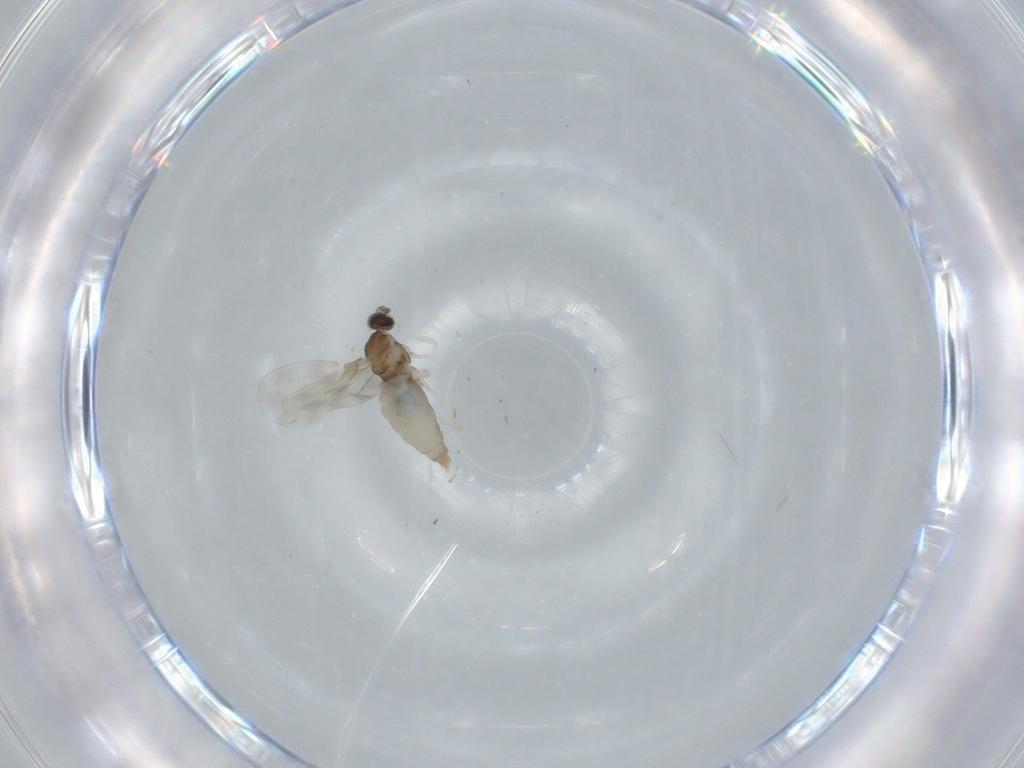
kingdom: Animalia
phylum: Arthropoda
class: Insecta
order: Diptera
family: Cecidomyiidae
